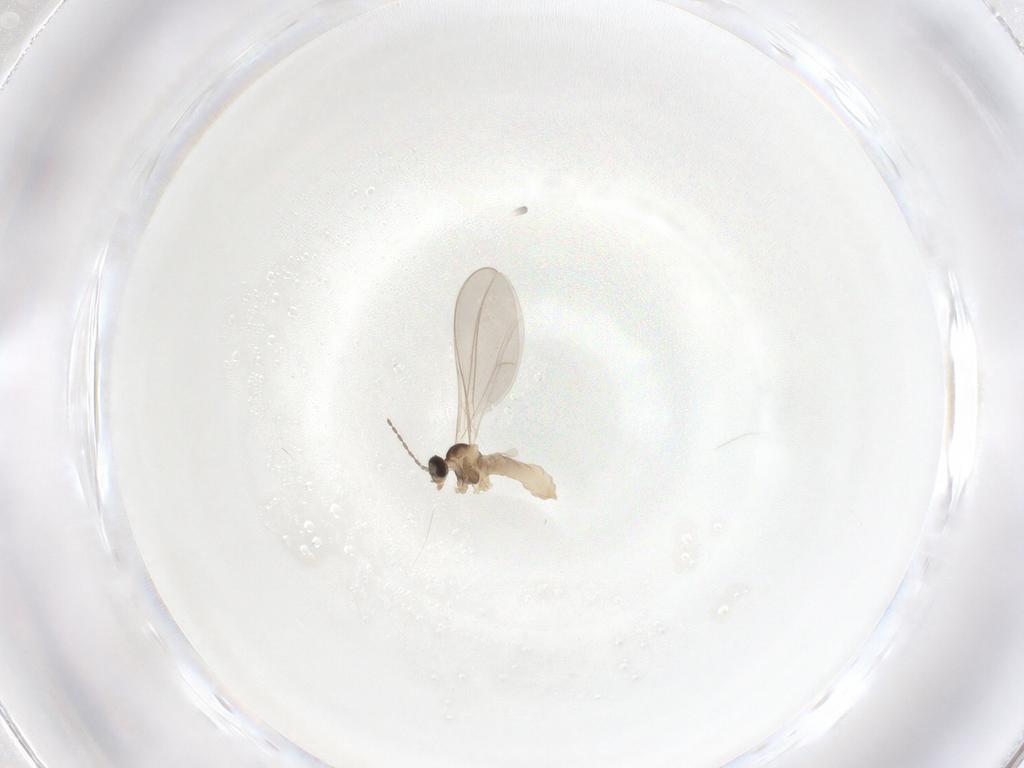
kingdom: Animalia
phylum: Arthropoda
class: Insecta
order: Diptera
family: Cecidomyiidae
